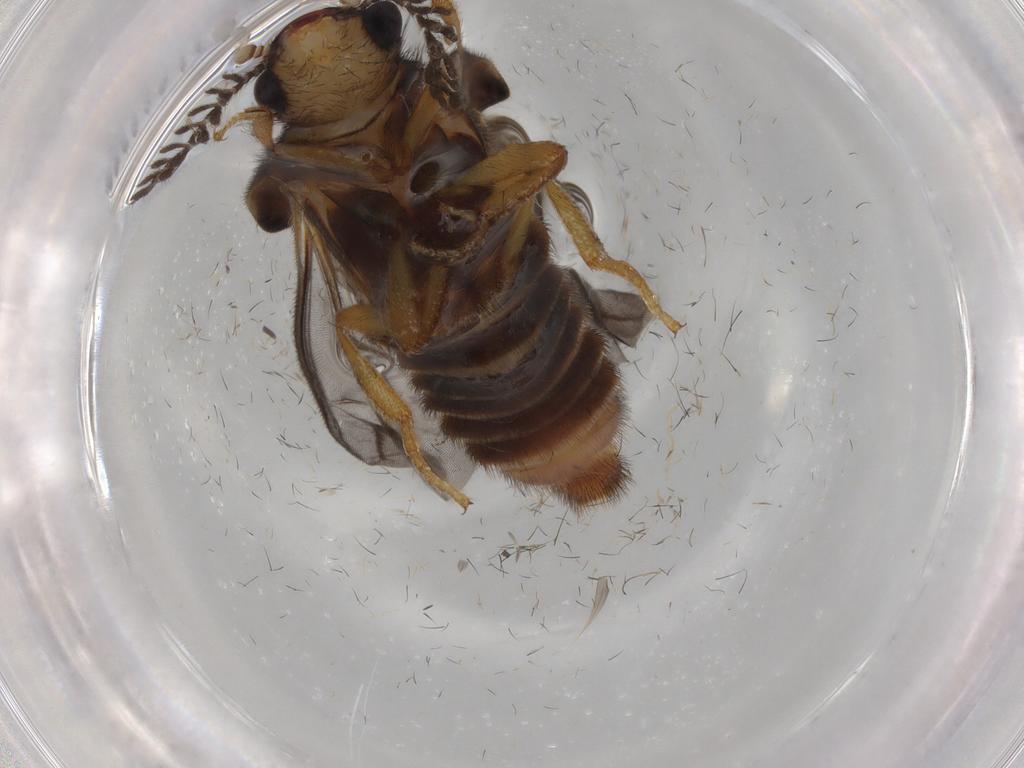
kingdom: Animalia
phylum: Arthropoda
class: Insecta
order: Coleoptera
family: Phengodidae
